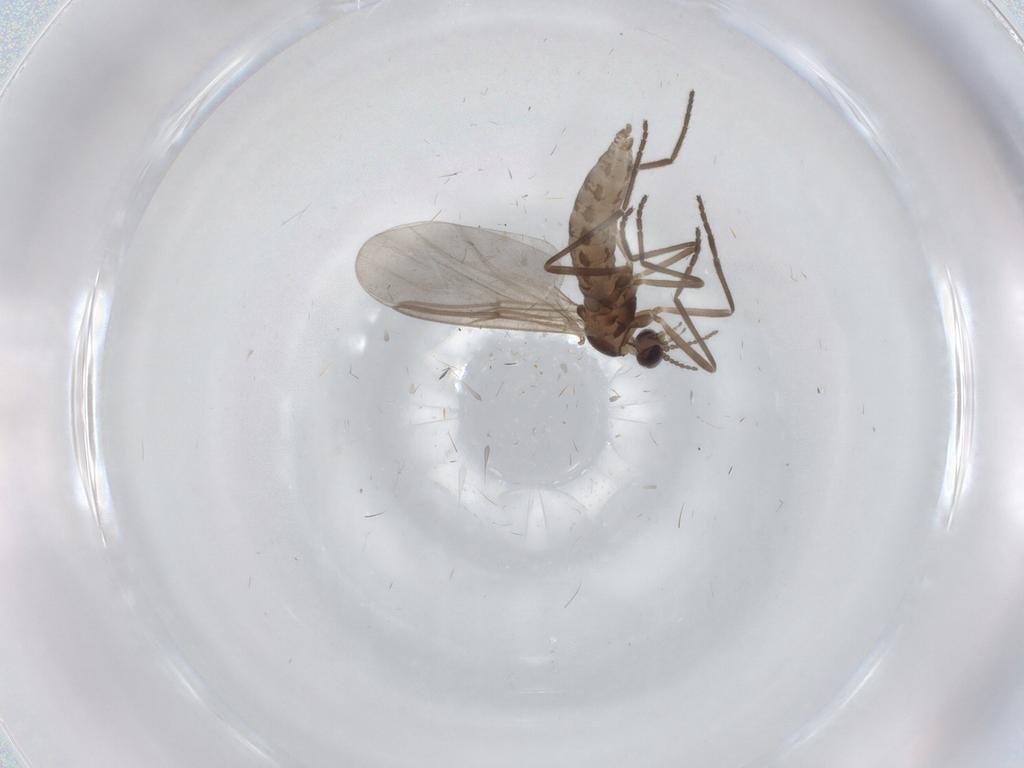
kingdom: Animalia
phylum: Arthropoda
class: Insecta
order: Diptera
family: Cecidomyiidae
